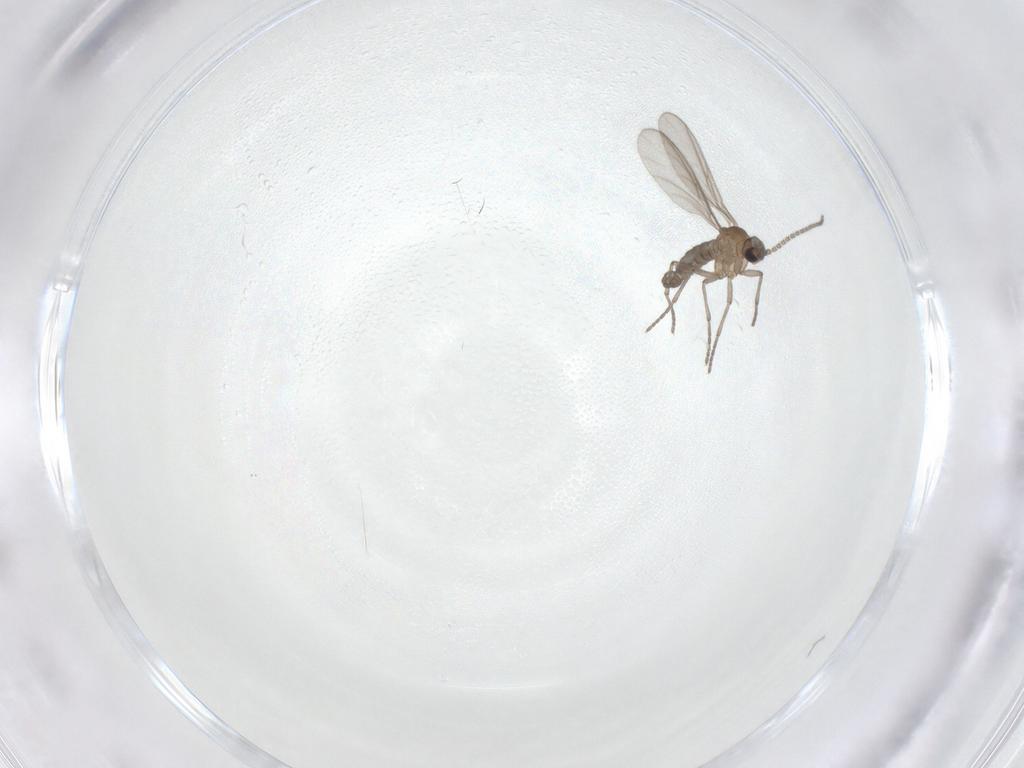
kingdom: Animalia
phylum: Arthropoda
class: Insecta
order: Diptera
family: Sciaridae
